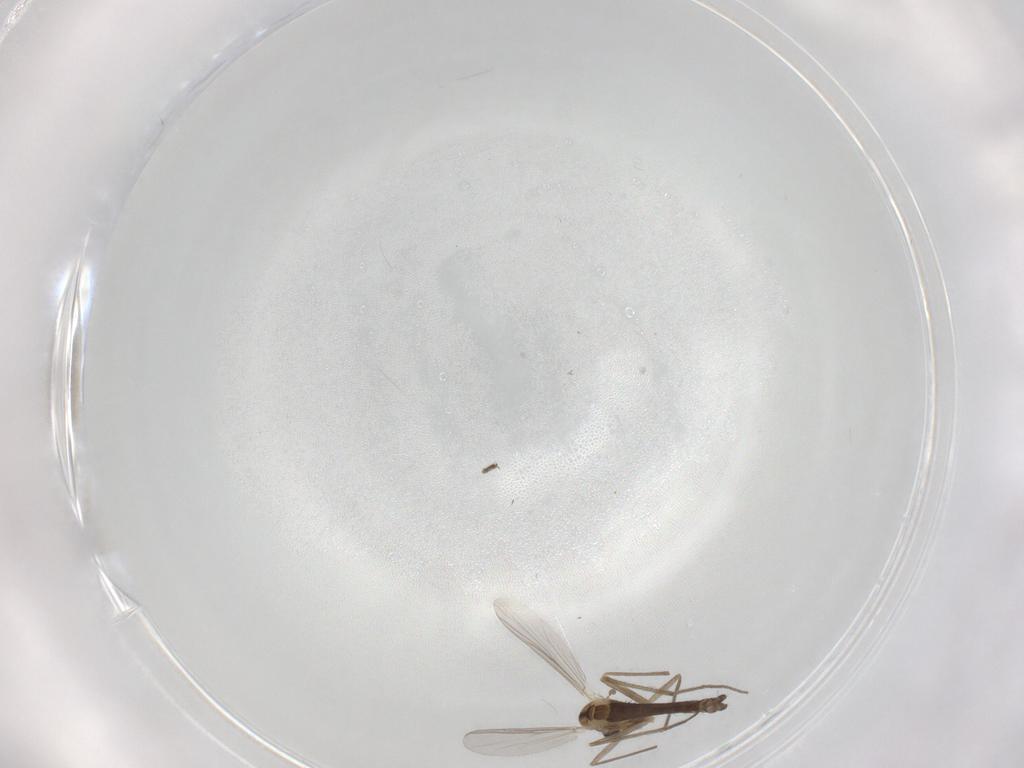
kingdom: Animalia
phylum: Arthropoda
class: Insecta
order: Diptera
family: Chironomidae
